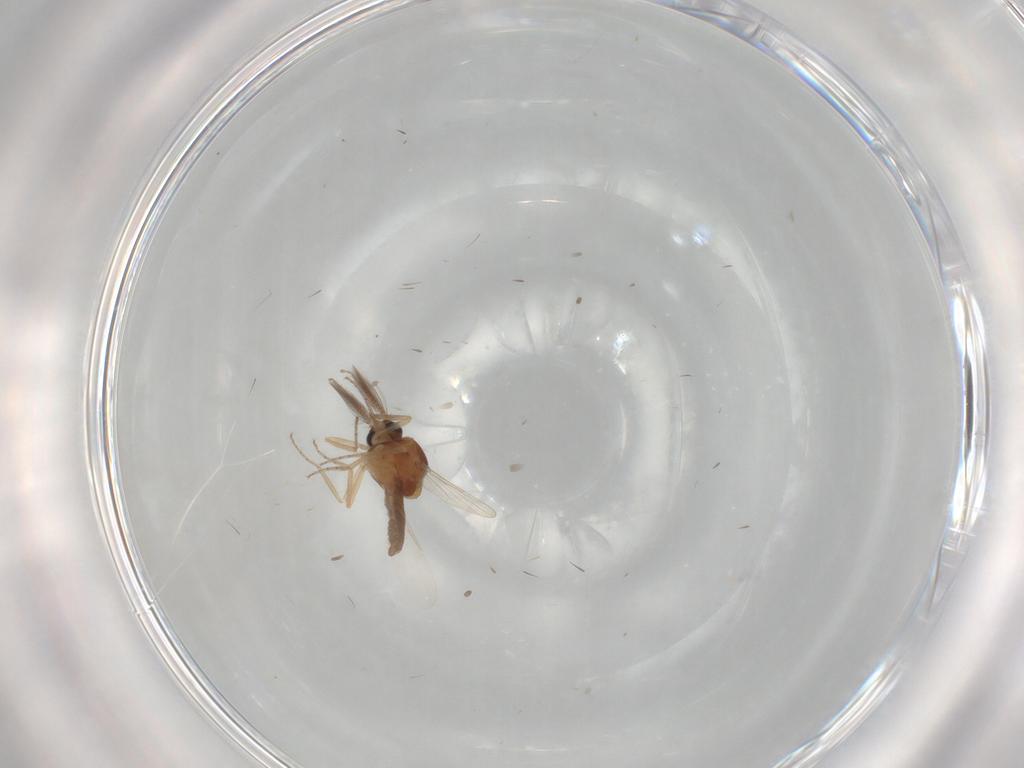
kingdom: Animalia
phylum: Arthropoda
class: Insecta
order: Diptera
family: Ceratopogonidae
